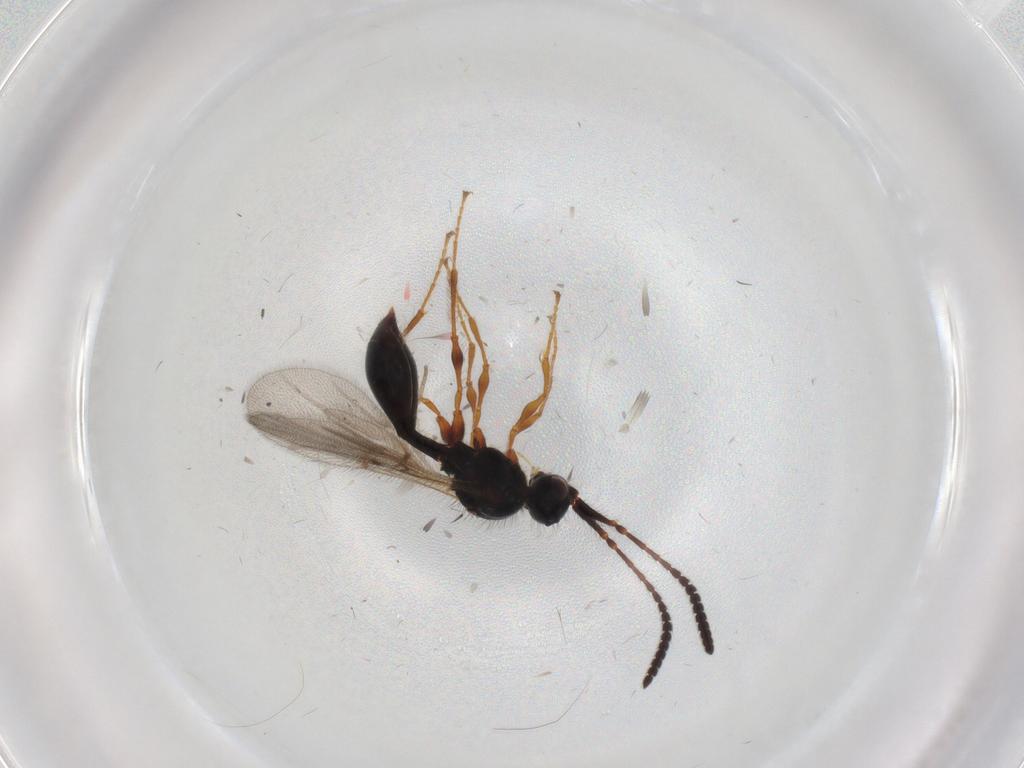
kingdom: Animalia
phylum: Arthropoda
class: Insecta
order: Hymenoptera
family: Diapriidae
